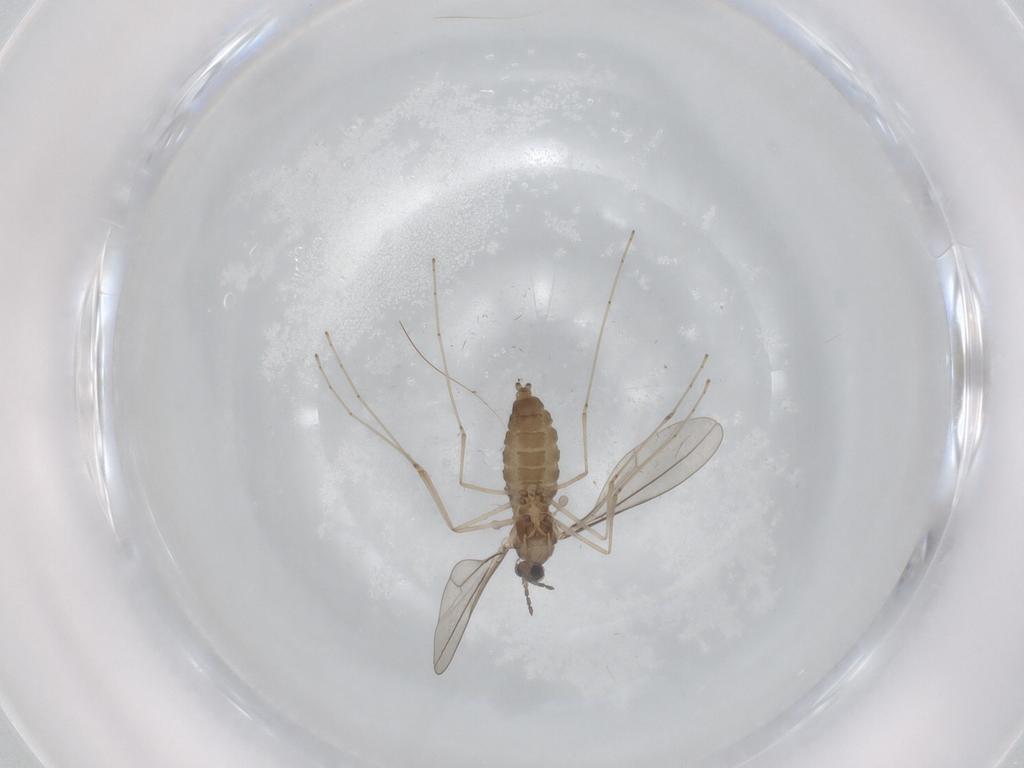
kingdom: Animalia
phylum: Arthropoda
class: Insecta
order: Diptera
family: Cecidomyiidae
